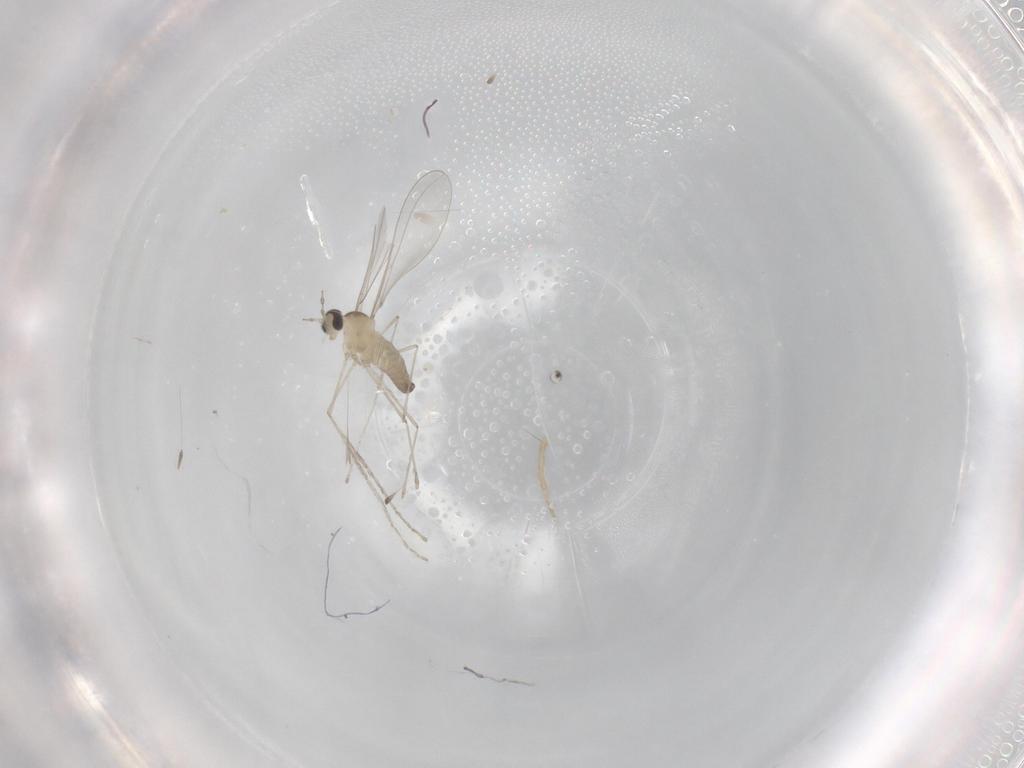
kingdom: Animalia
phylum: Arthropoda
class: Insecta
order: Diptera
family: Cecidomyiidae
